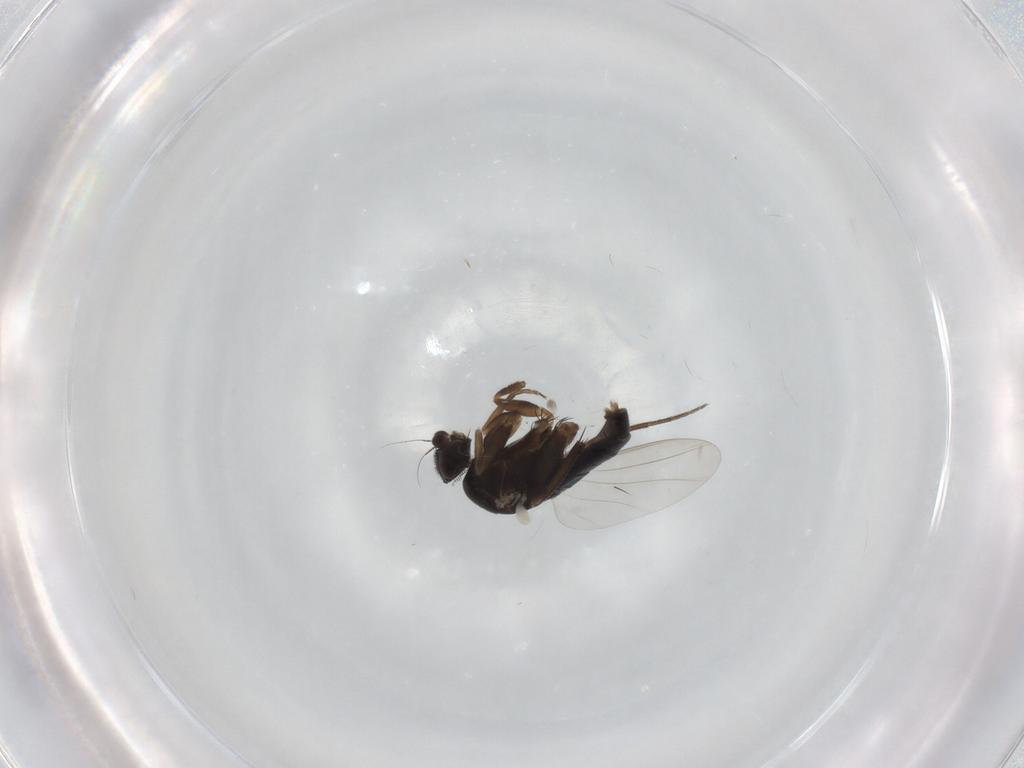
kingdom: Animalia
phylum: Arthropoda
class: Insecta
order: Diptera
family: Phoridae
